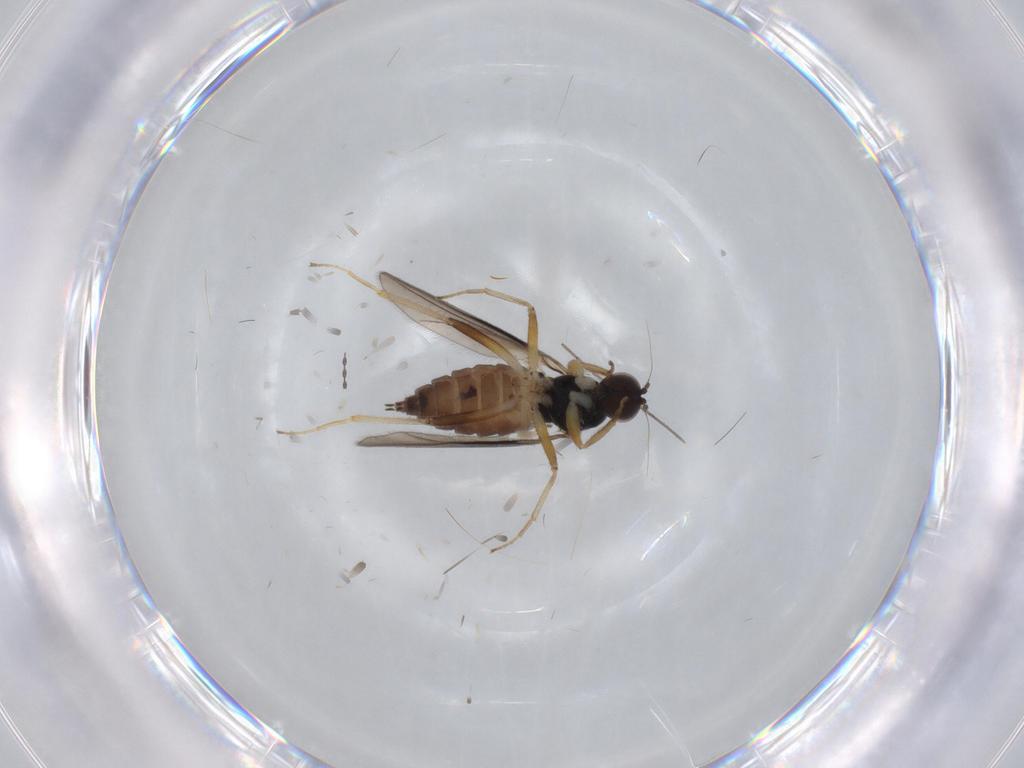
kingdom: Animalia
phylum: Arthropoda
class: Insecta
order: Diptera
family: Hybotidae
